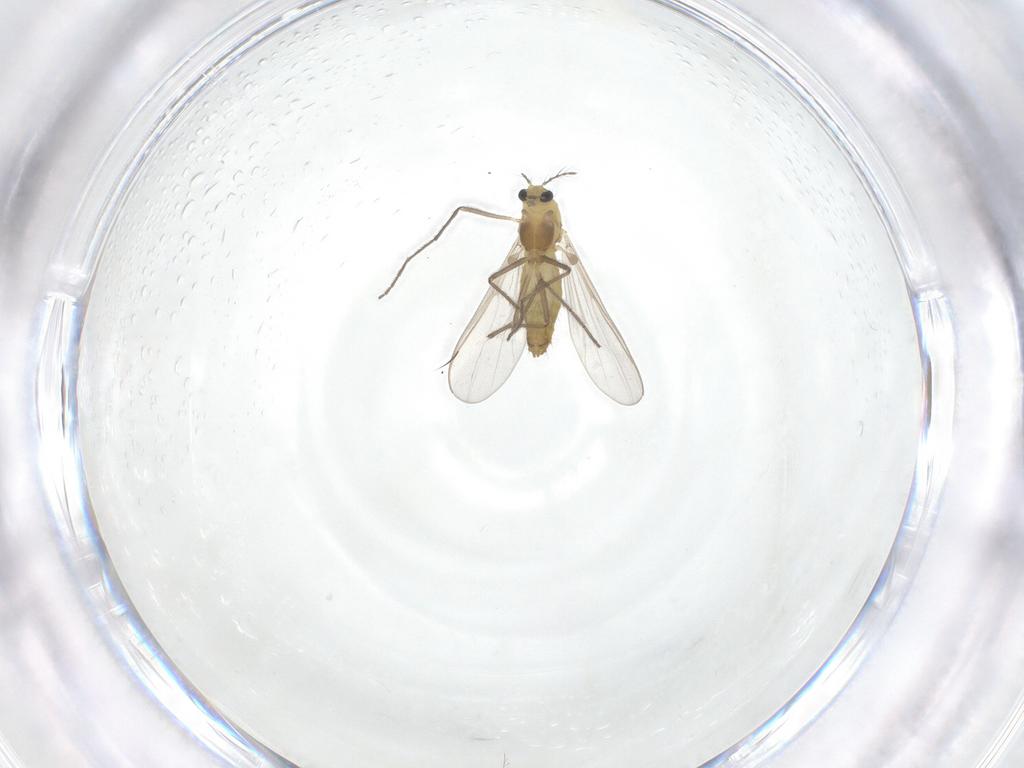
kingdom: Animalia
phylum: Arthropoda
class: Insecta
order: Diptera
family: Chironomidae
